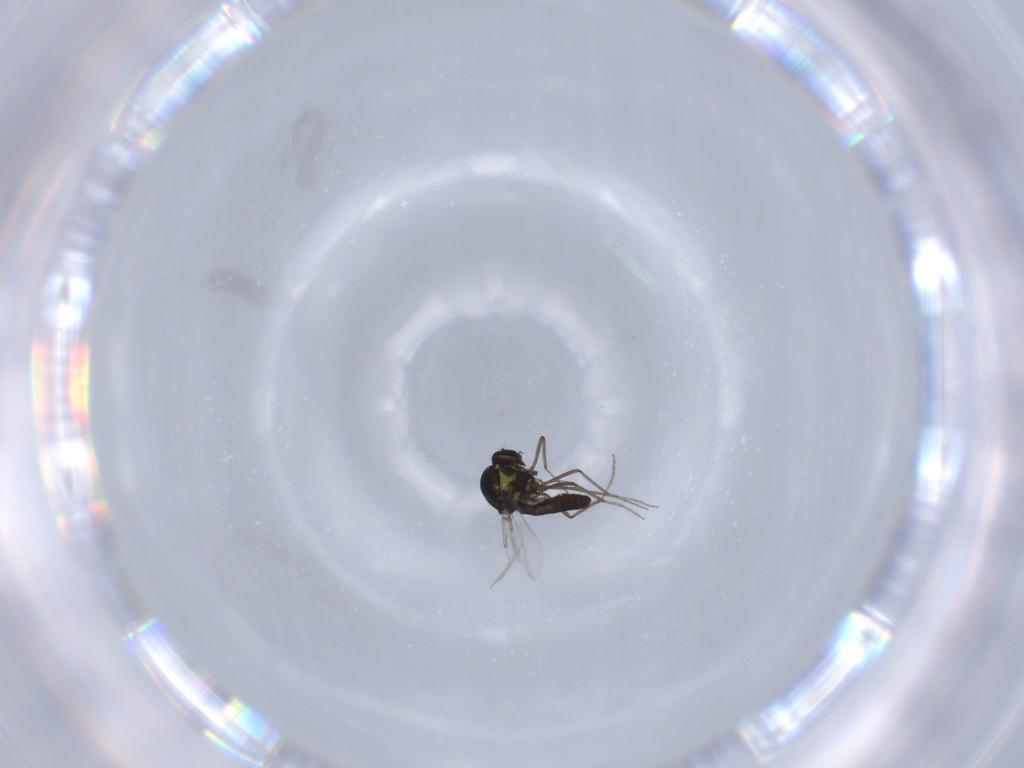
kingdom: Animalia
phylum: Arthropoda
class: Insecta
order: Diptera
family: Ceratopogonidae
